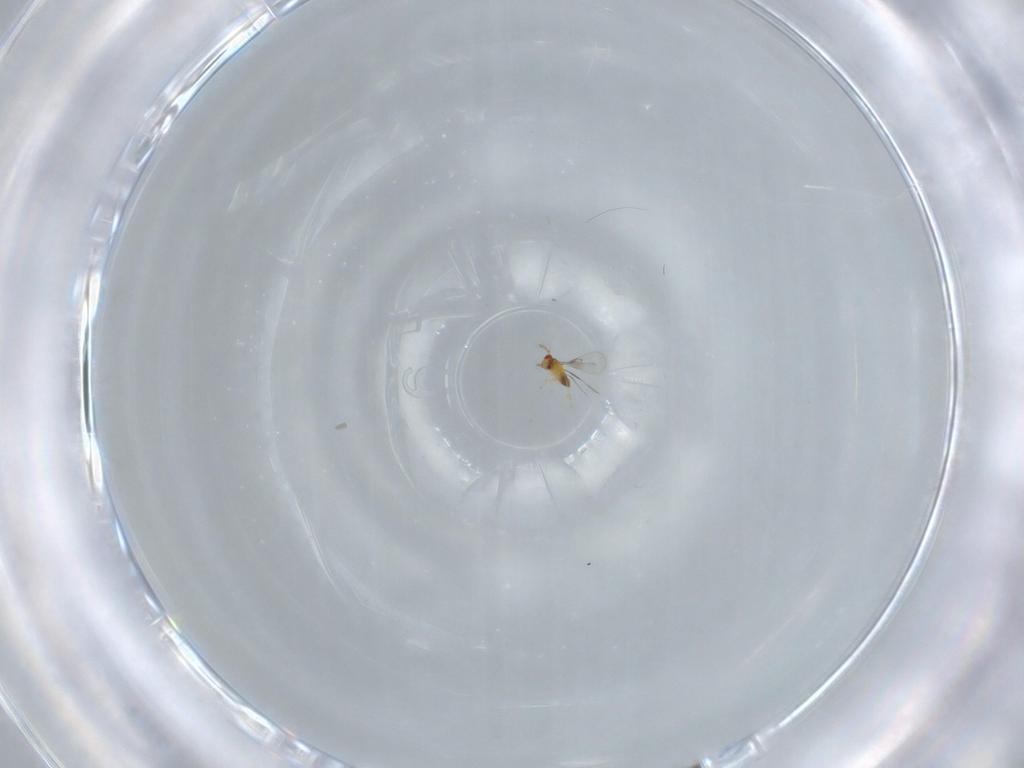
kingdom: Animalia
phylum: Arthropoda
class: Insecta
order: Hymenoptera
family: Trichogrammatidae
